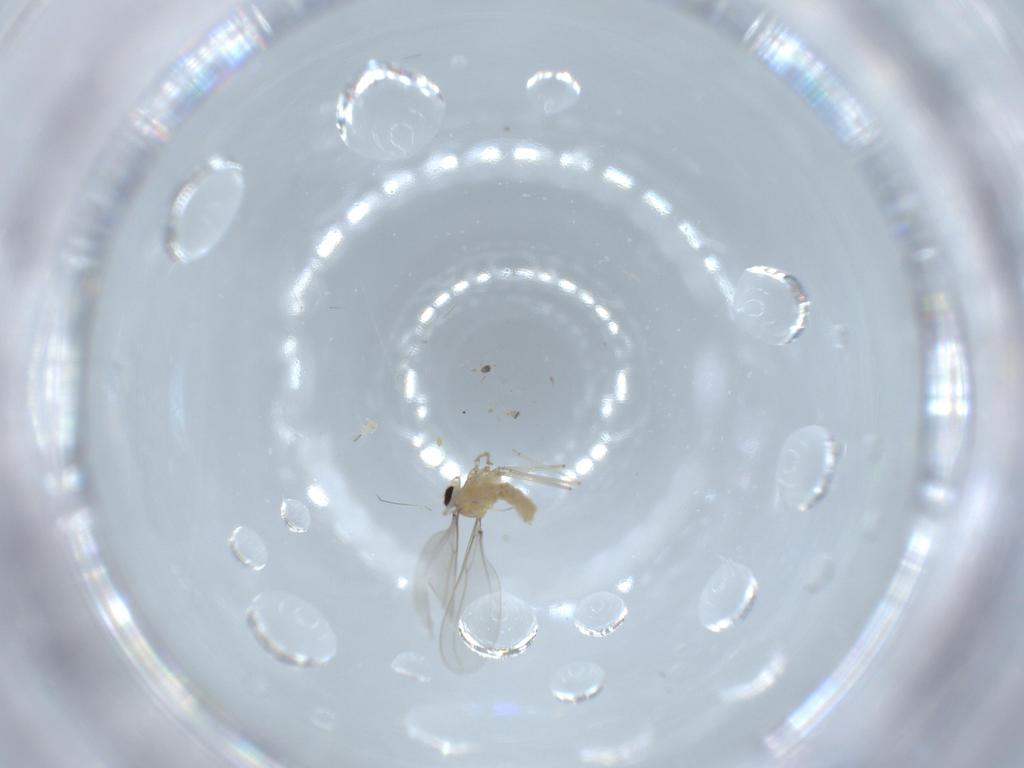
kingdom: Animalia
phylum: Arthropoda
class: Insecta
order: Diptera
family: Cecidomyiidae
